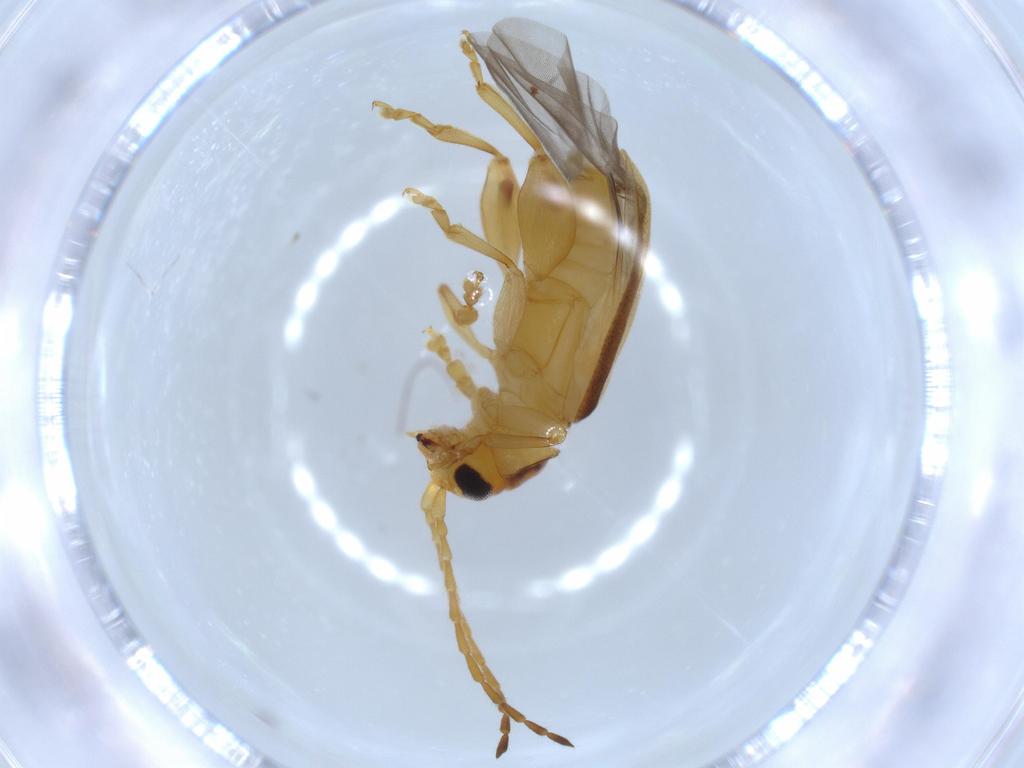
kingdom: Animalia
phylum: Arthropoda
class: Insecta
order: Coleoptera
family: Chrysomelidae
